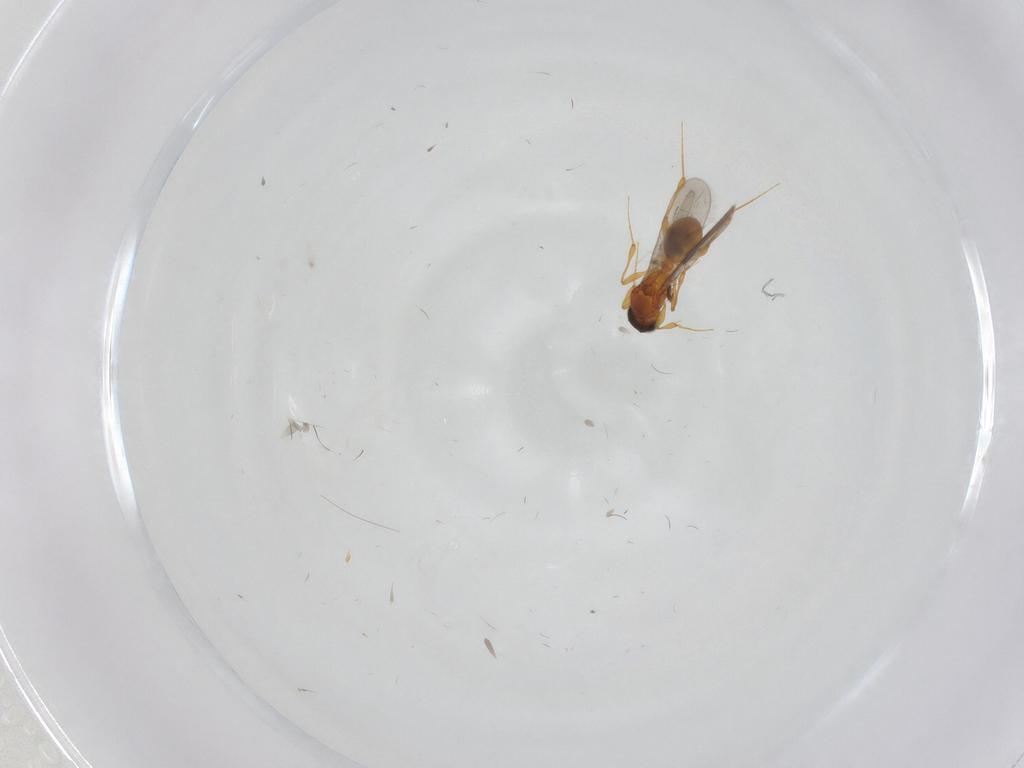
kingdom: Animalia
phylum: Arthropoda
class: Insecta
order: Hymenoptera
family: Platygastridae
